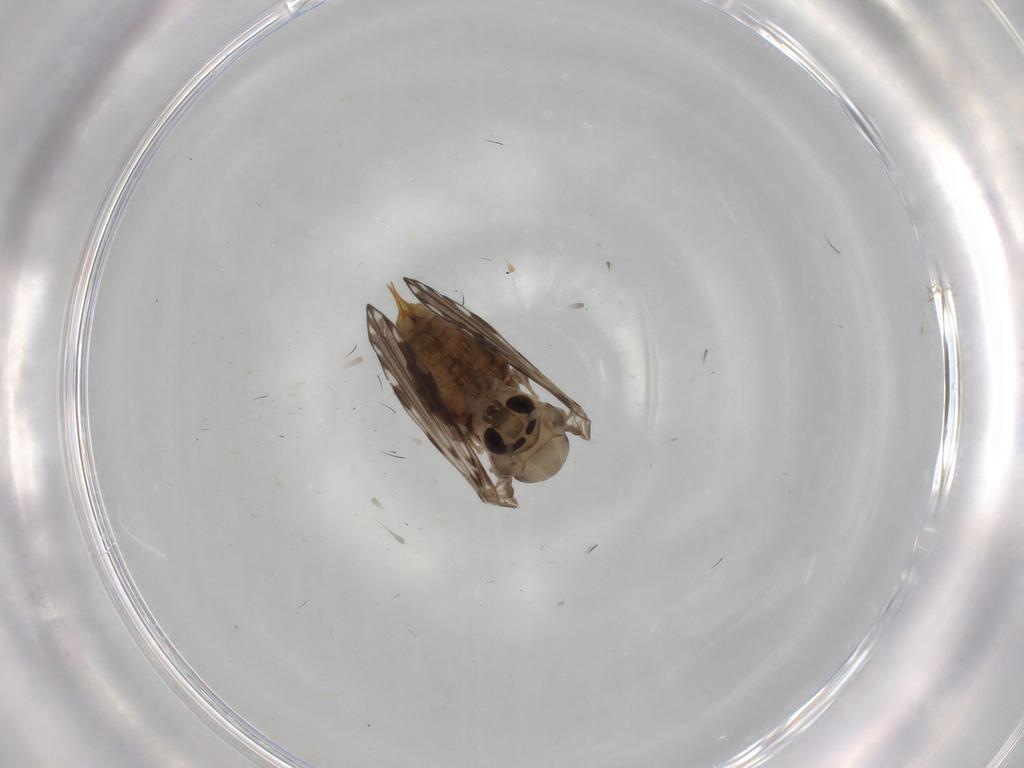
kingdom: Animalia
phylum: Arthropoda
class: Insecta
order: Diptera
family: Psychodidae
